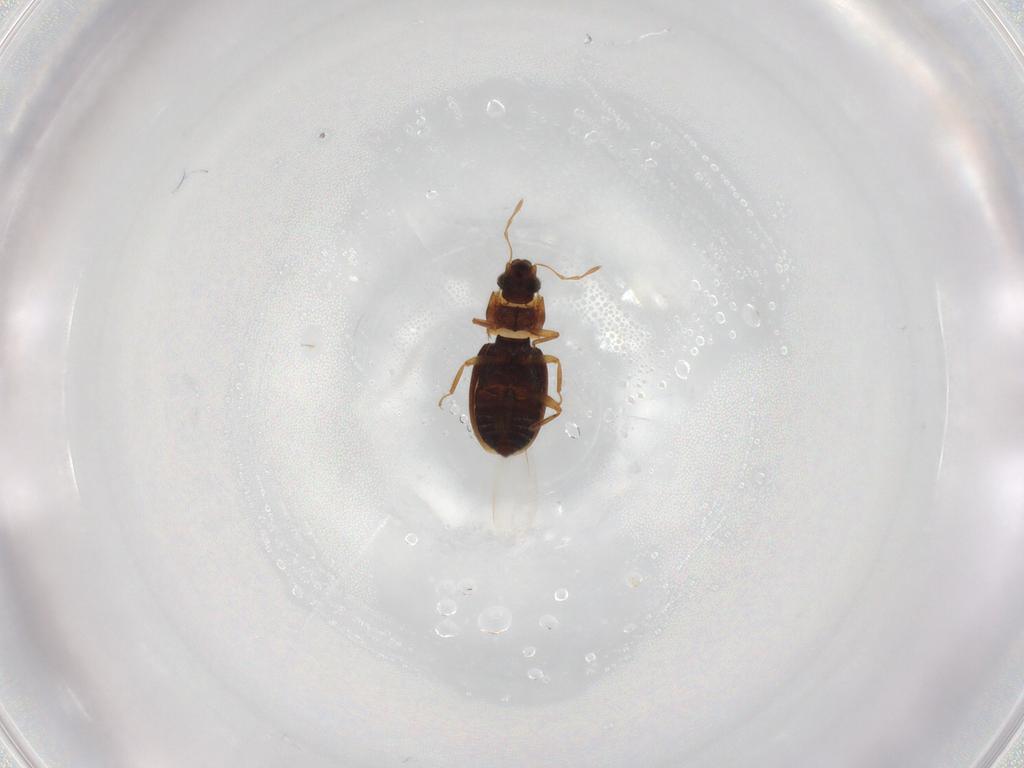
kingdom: Animalia
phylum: Arthropoda
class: Insecta
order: Coleoptera
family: Hydraenidae
